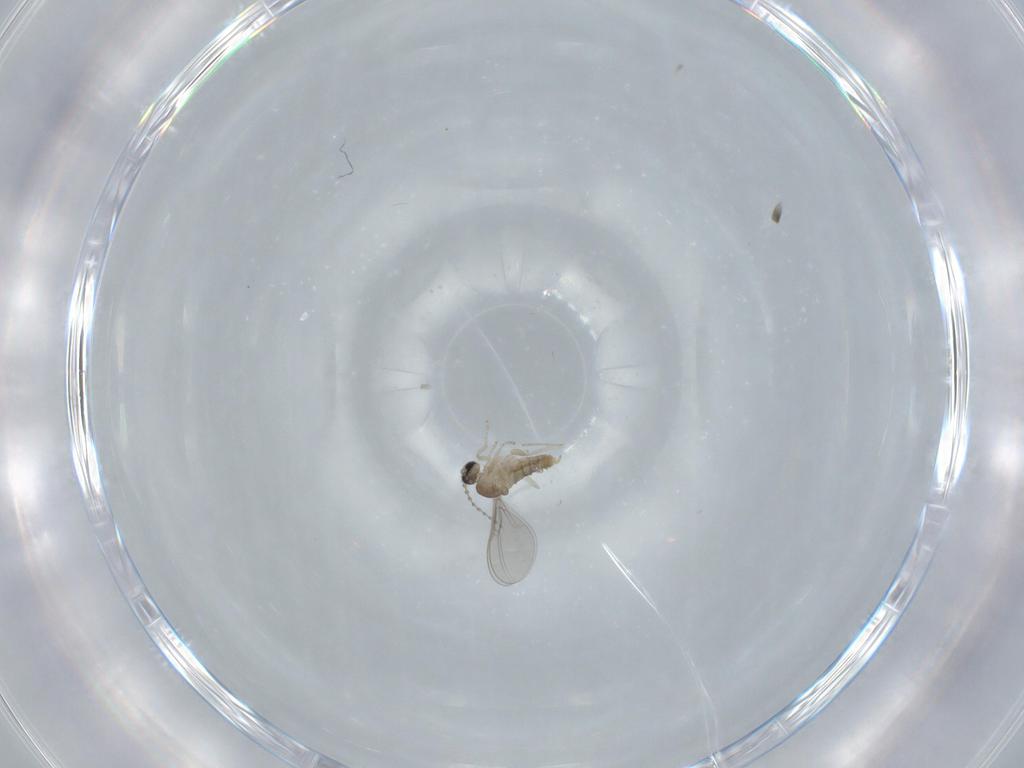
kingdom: Animalia
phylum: Arthropoda
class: Insecta
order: Diptera
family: Cecidomyiidae
